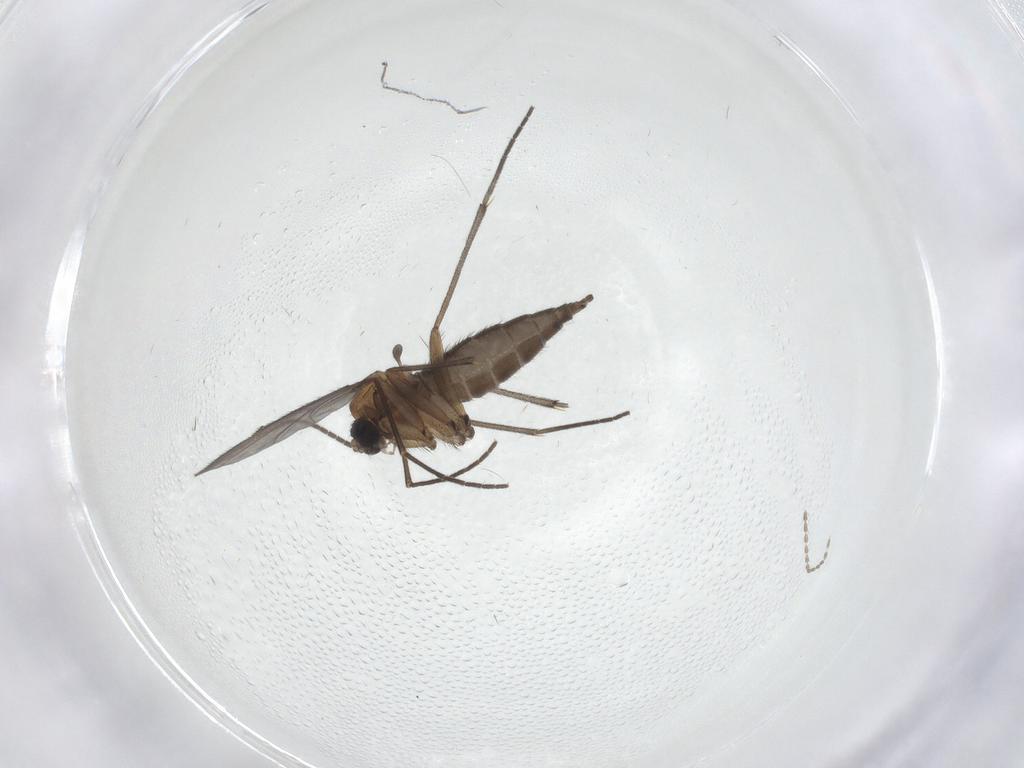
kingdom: Animalia
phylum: Arthropoda
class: Insecta
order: Diptera
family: Sciaridae
